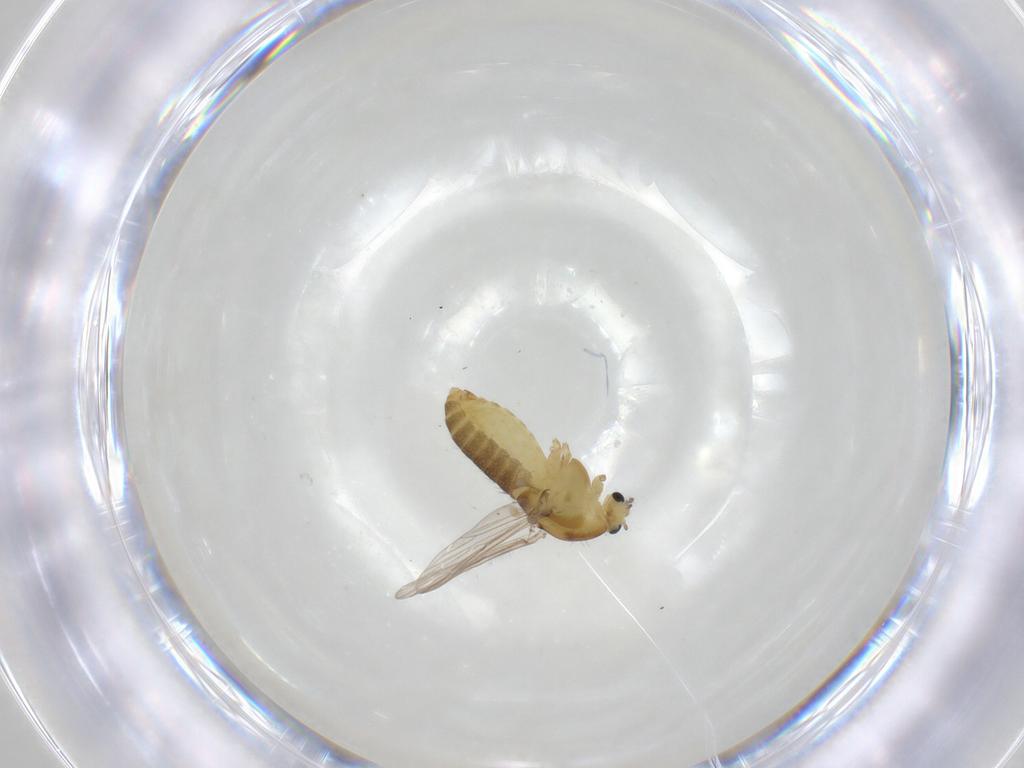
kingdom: Animalia
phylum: Arthropoda
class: Insecta
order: Diptera
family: Chironomidae
